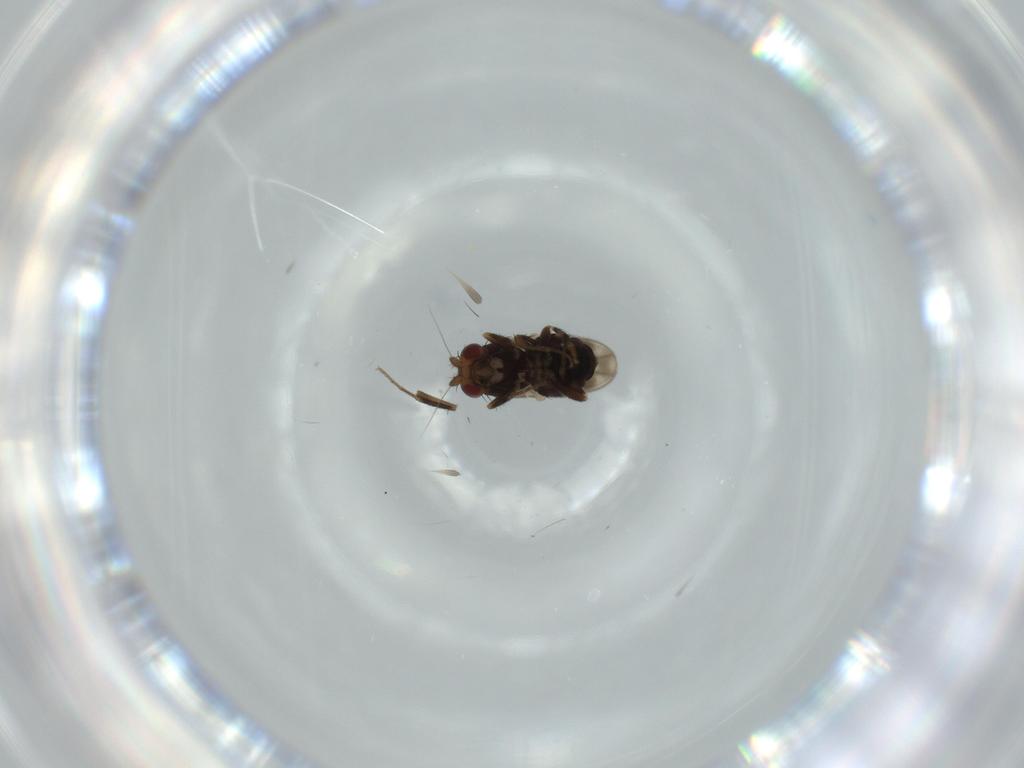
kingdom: Animalia
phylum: Arthropoda
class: Insecta
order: Diptera
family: Sphaeroceridae
